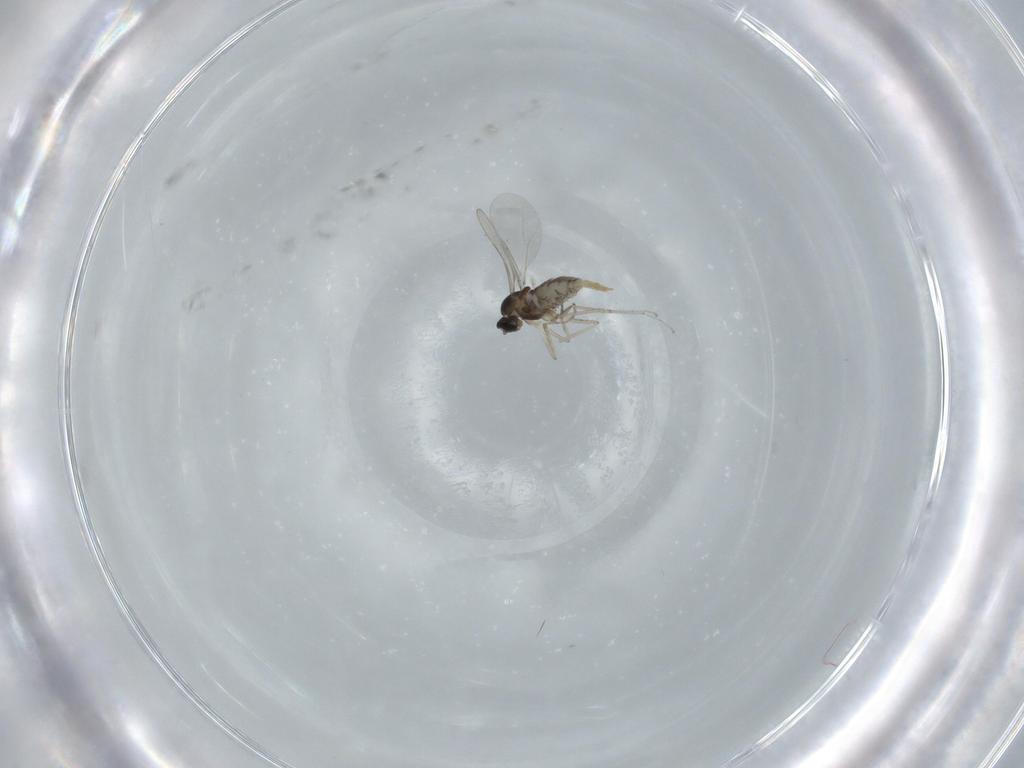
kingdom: Animalia
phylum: Arthropoda
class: Insecta
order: Diptera
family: Cecidomyiidae
